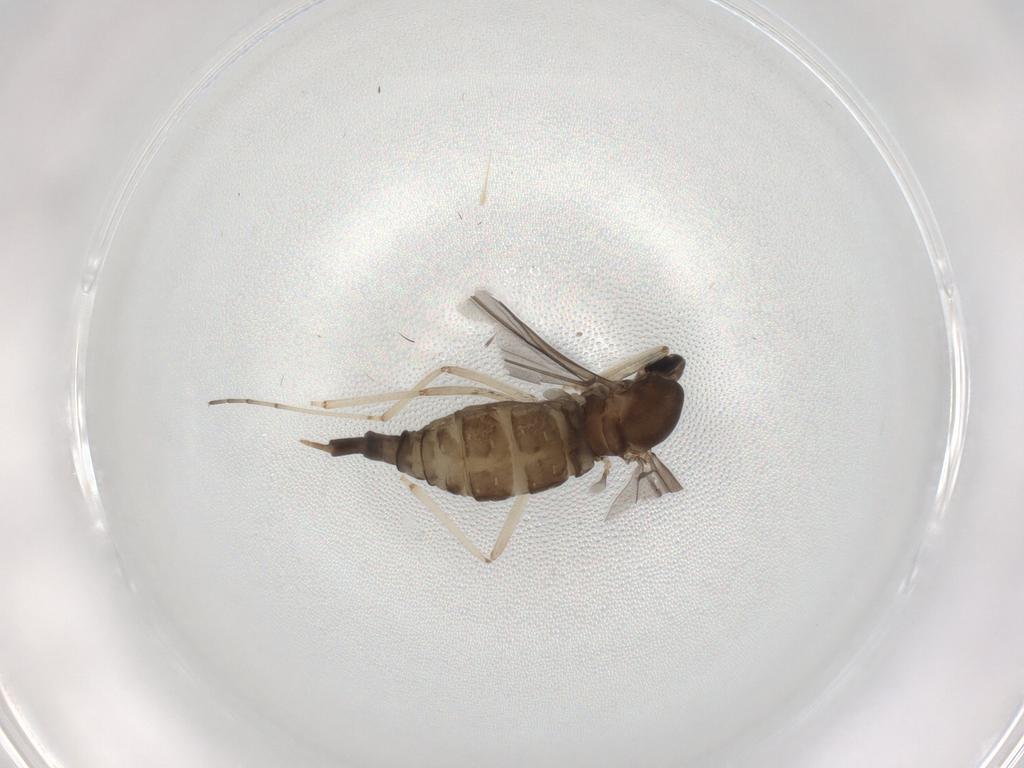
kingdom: Animalia
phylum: Arthropoda
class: Insecta
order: Diptera
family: Cecidomyiidae
